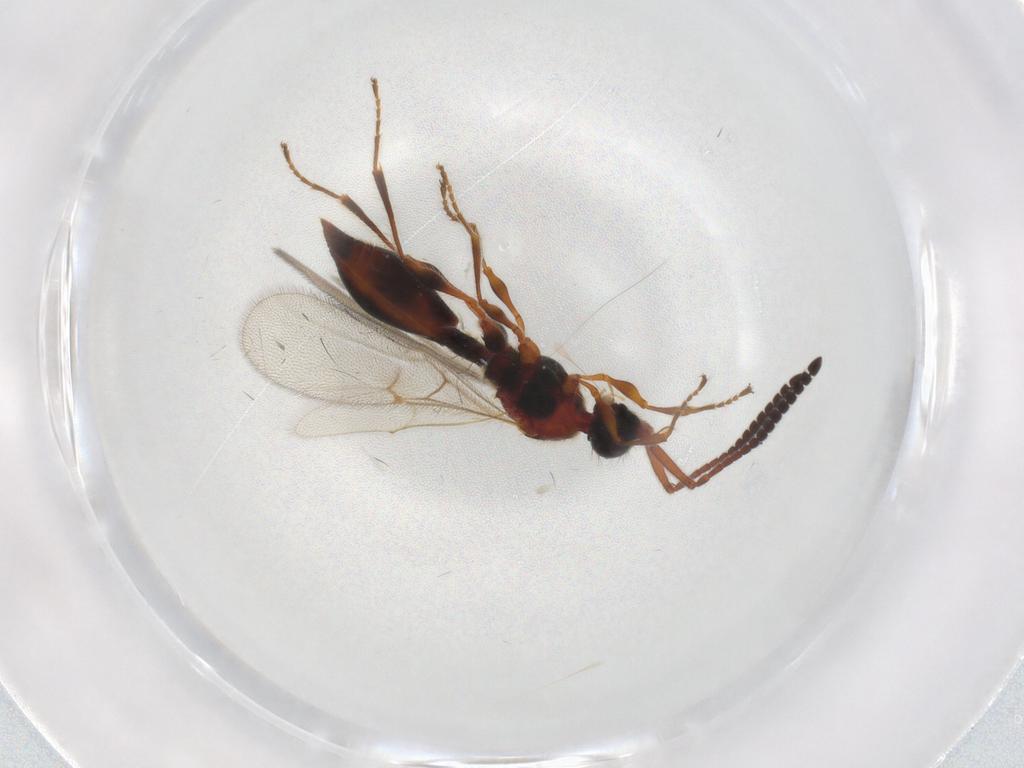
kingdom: Animalia
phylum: Arthropoda
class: Insecta
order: Hymenoptera
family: Diapriidae
